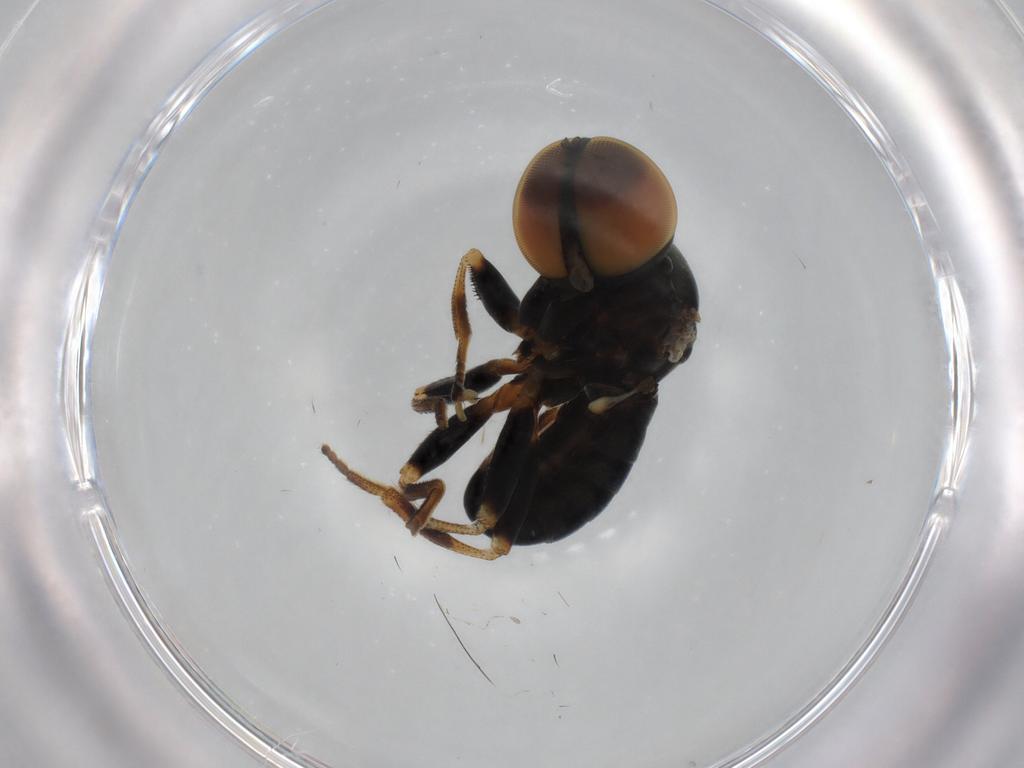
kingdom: Animalia
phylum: Arthropoda
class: Insecta
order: Diptera
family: Pipunculidae
